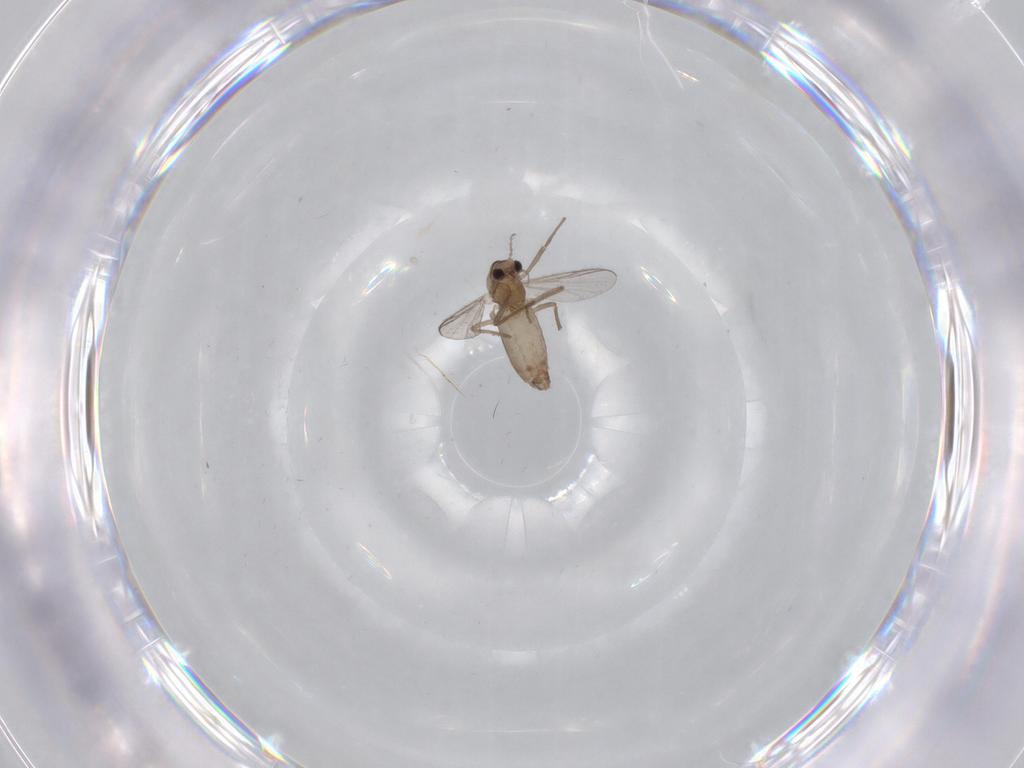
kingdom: Animalia
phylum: Arthropoda
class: Insecta
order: Diptera
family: Chironomidae
